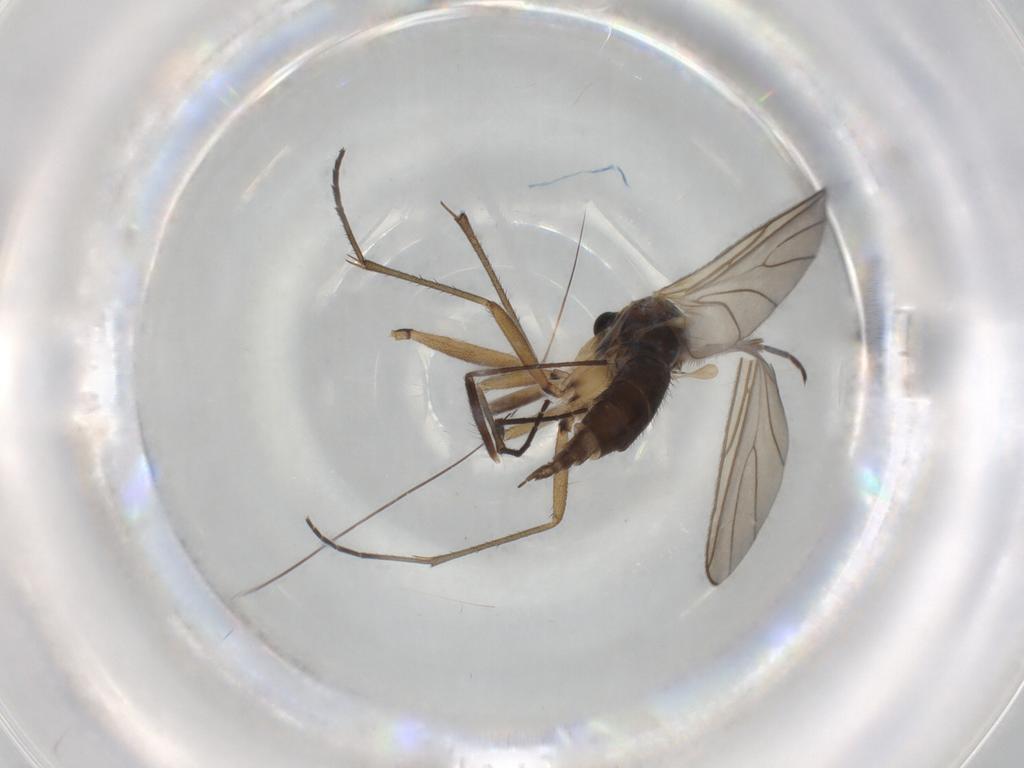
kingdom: Animalia
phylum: Arthropoda
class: Insecta
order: Diptera
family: Sciaridae
